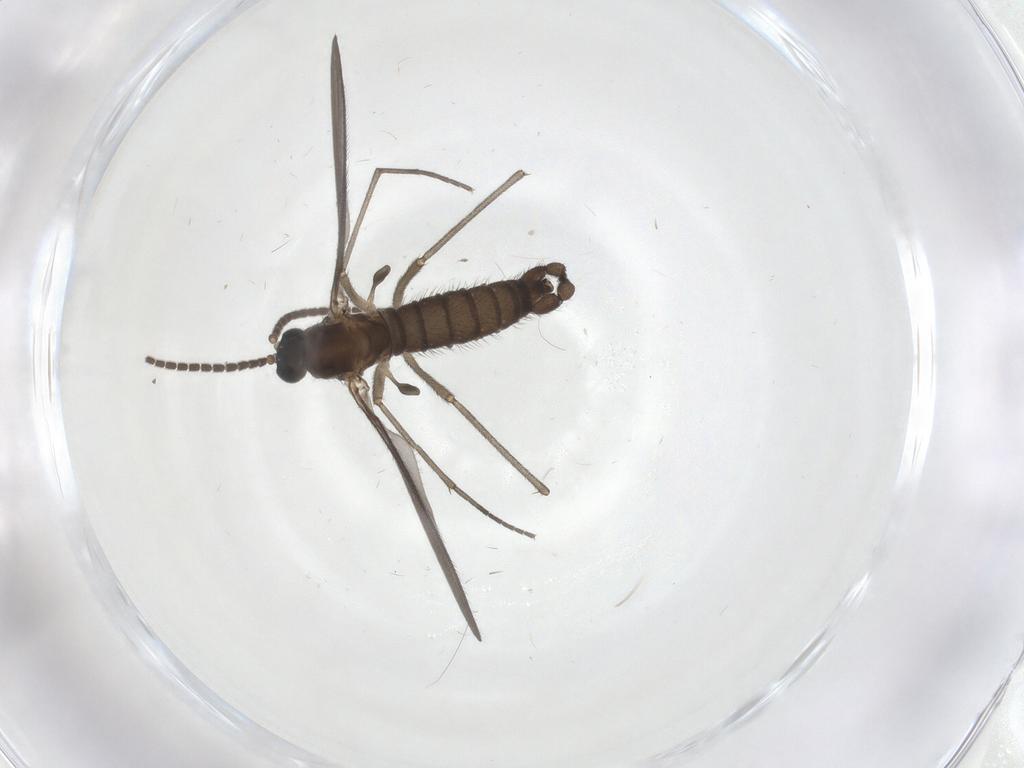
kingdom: Animalia
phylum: Arthropoda
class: Insecta
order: Diptera
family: Sciaridae
